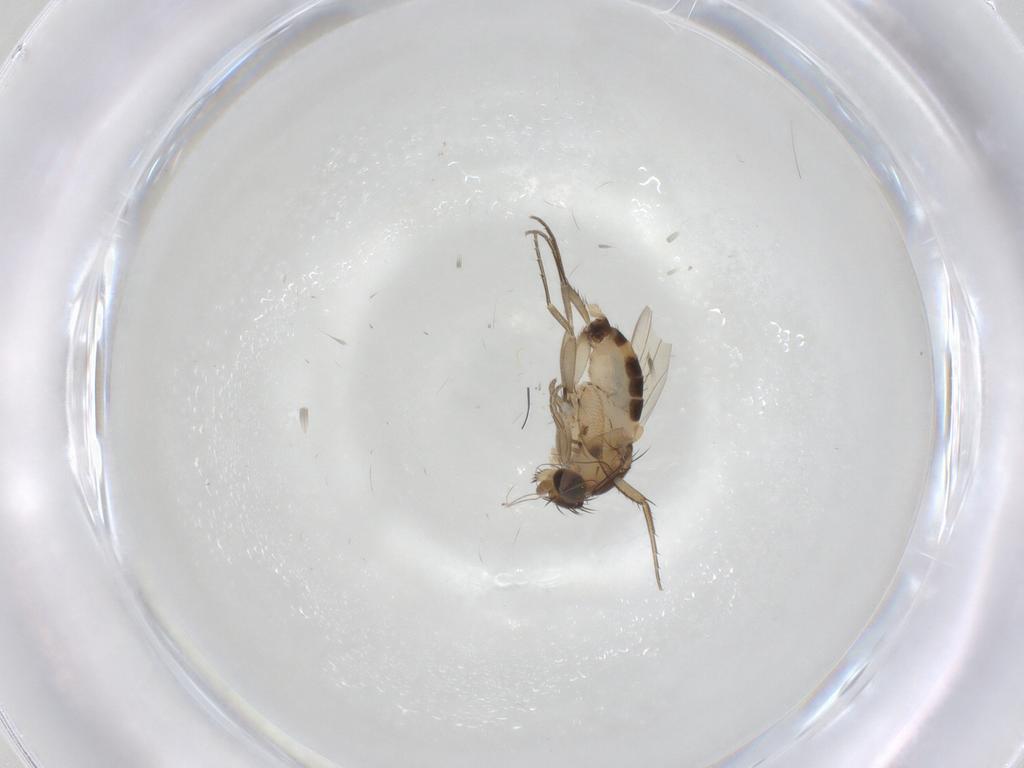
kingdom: Animalia
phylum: Arthropoda
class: Insecta
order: Diptera
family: Phoridae
